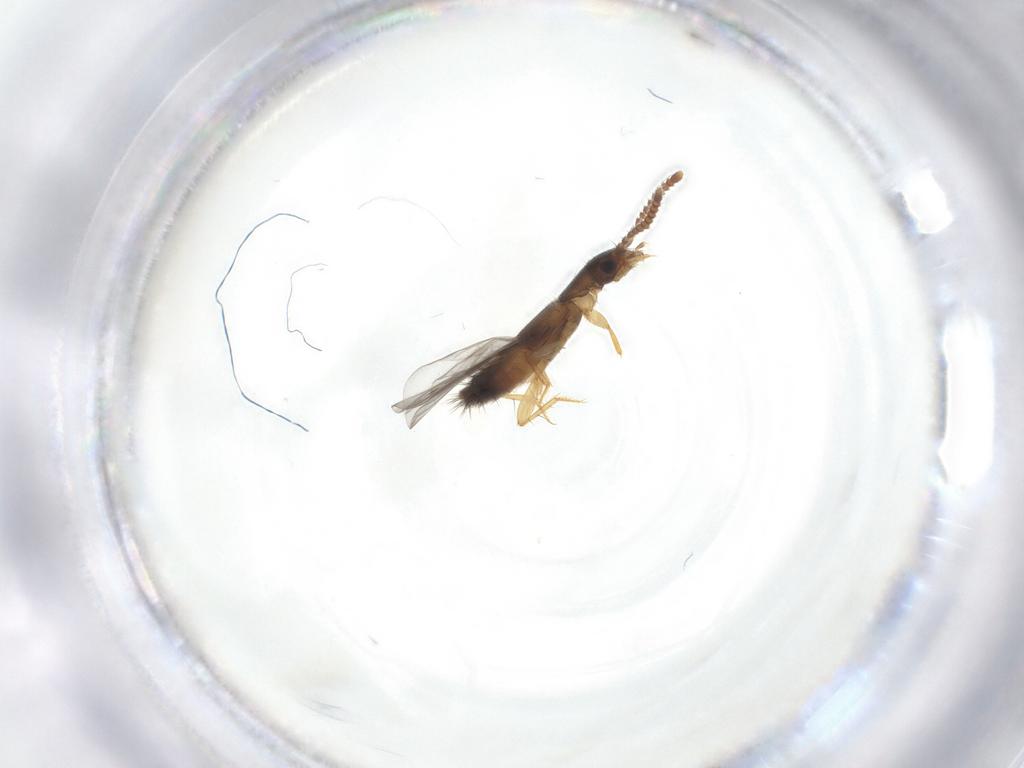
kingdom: Animalia
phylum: Arthropoda
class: Insecta
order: Coleoptera
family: Staphylinidae
